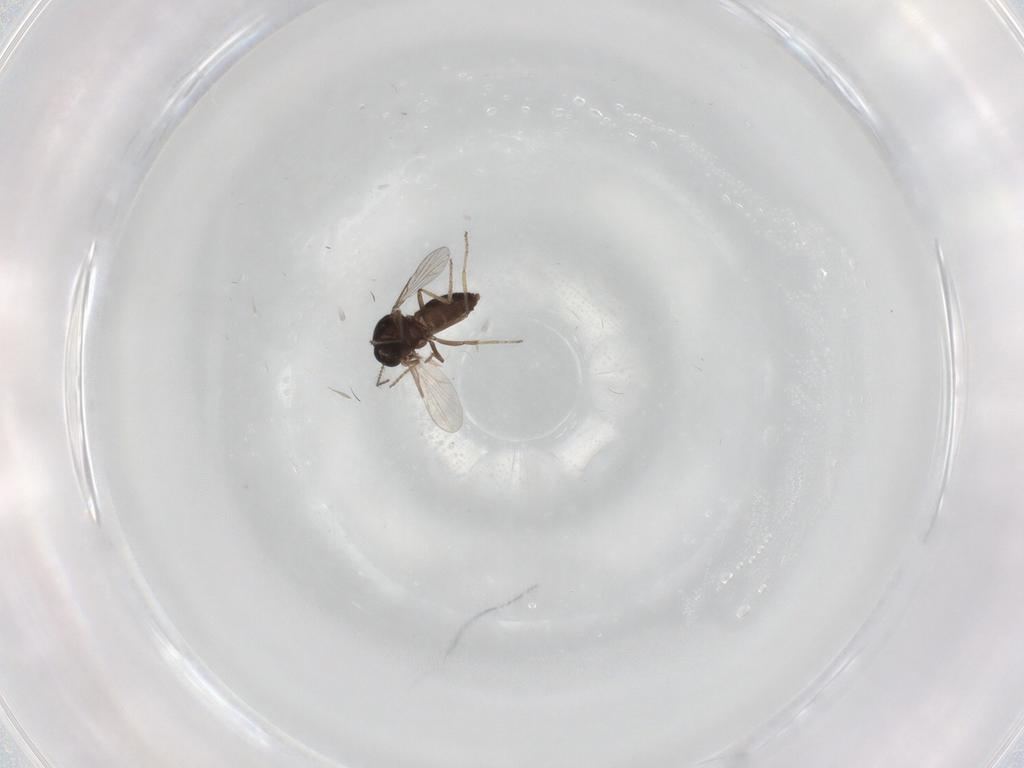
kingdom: Animalia
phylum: Arthropoda
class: Insecta
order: Diptera
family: Ceratopogonidae
